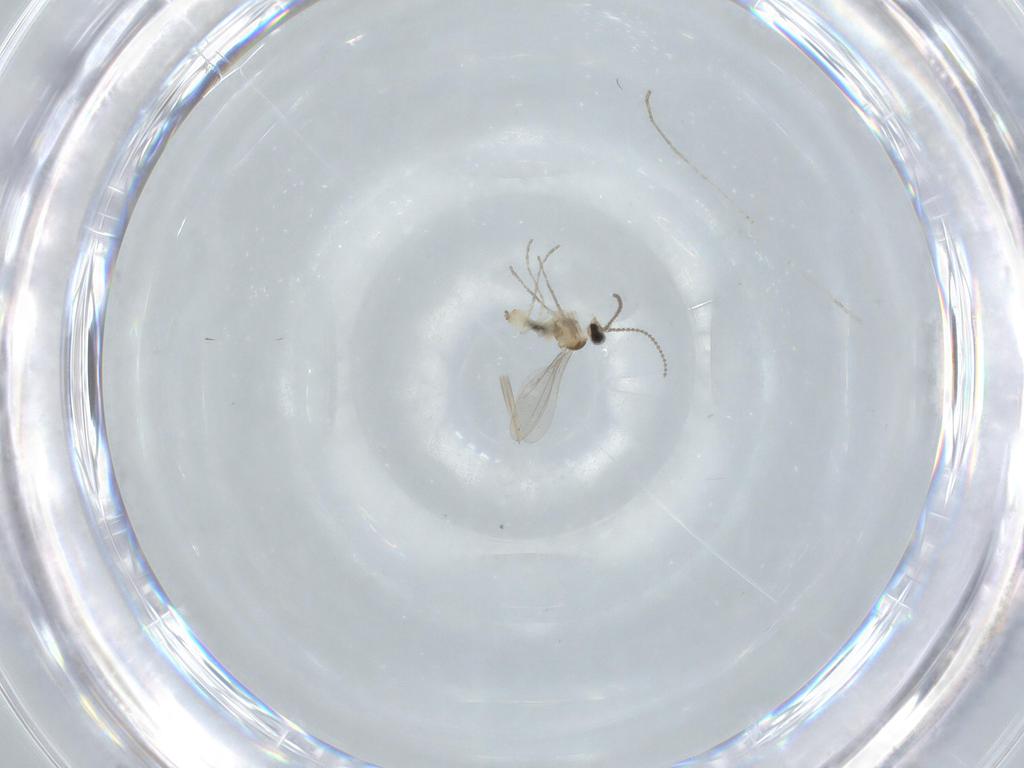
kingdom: Animalia
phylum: Arthropoda
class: Insecta
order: Diptera
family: Cecidomyiidae
